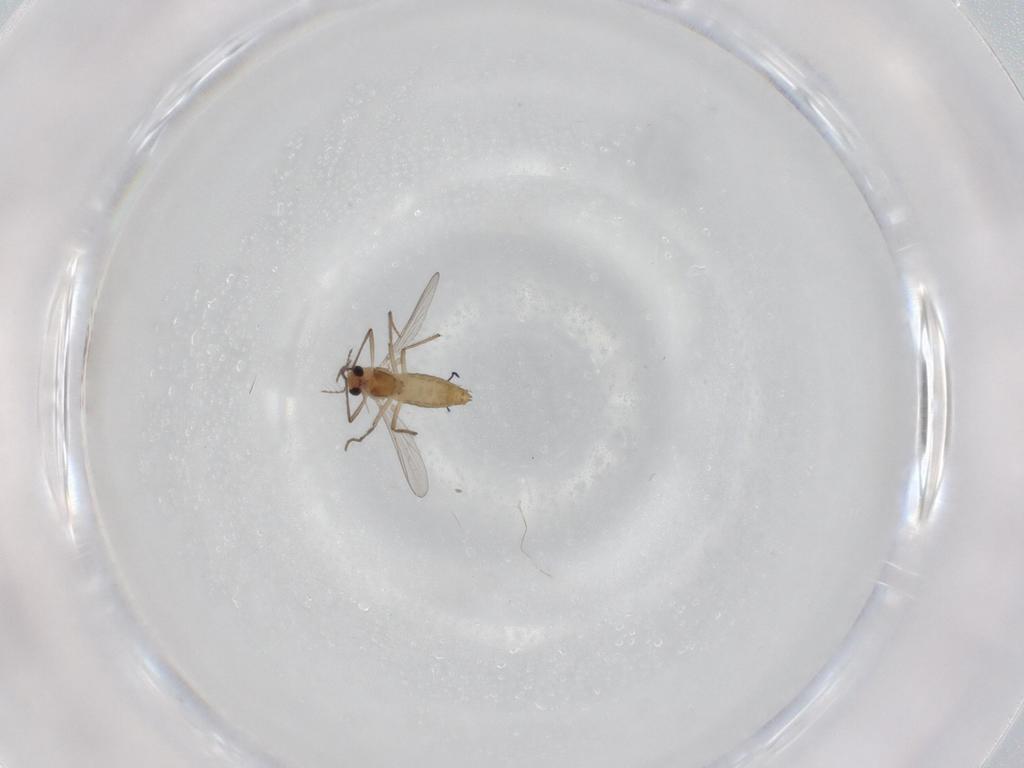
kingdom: Animalia
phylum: Arthropoda
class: Insecta
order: Diptera
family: Chironomidae
